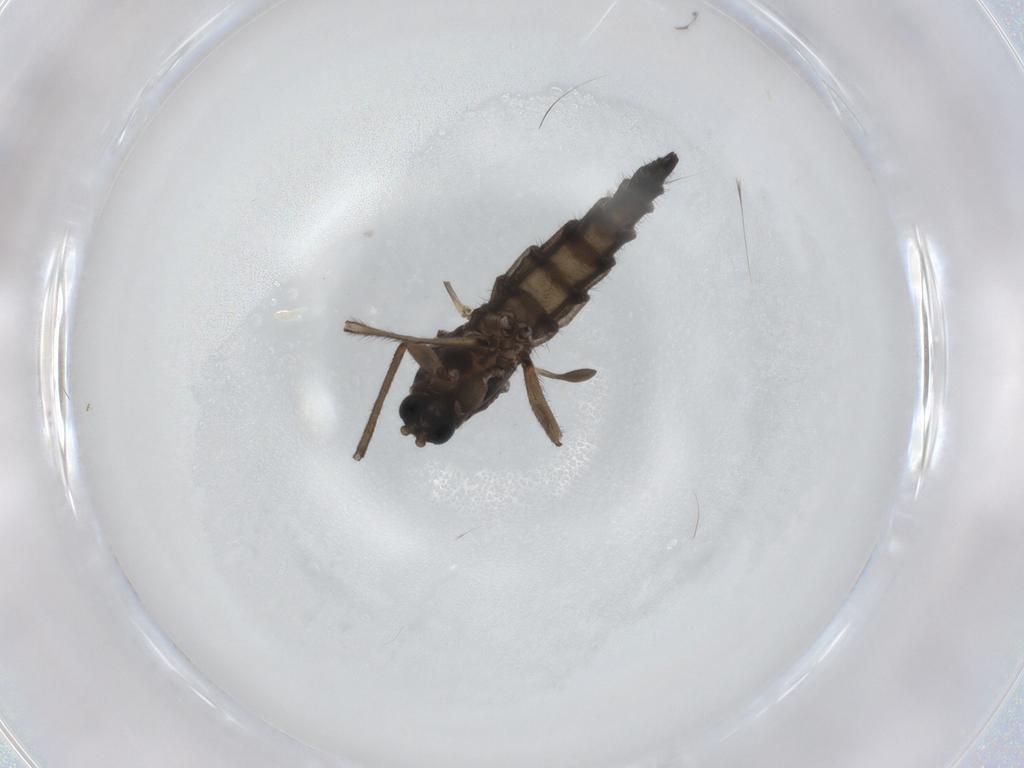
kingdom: Animalia
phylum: Arthropoda
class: Insecta
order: Diptera
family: Sciaridae
